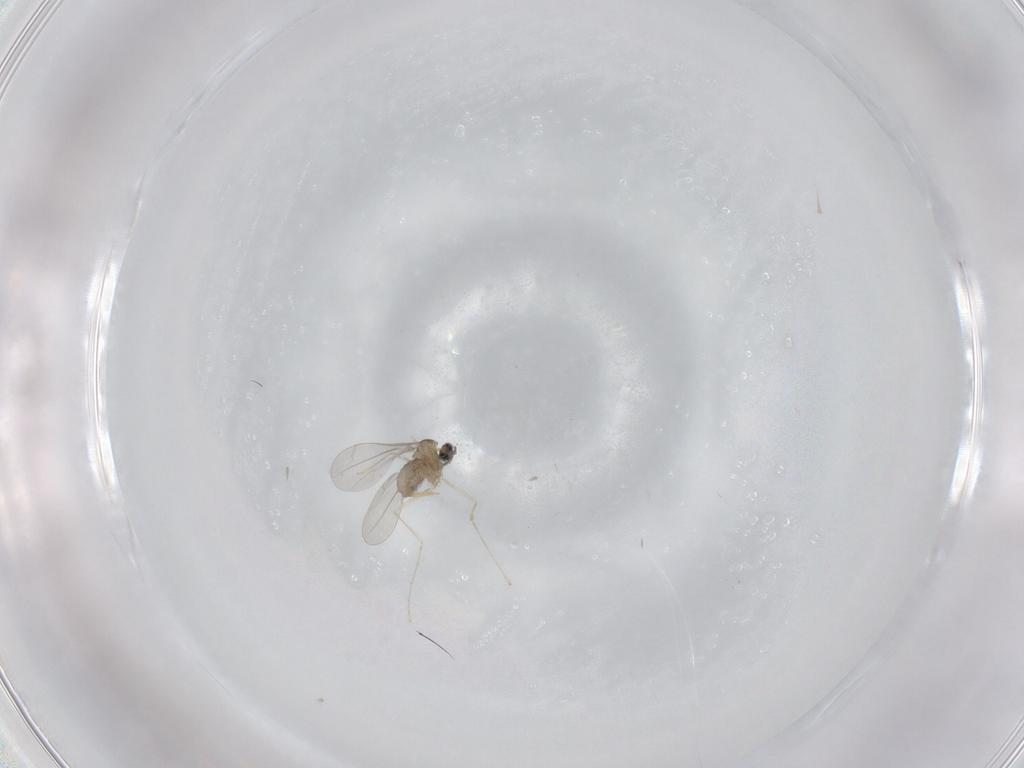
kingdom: Animalia
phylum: Arthropoda
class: Insecta
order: Diptera
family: Cecidomyiidae
